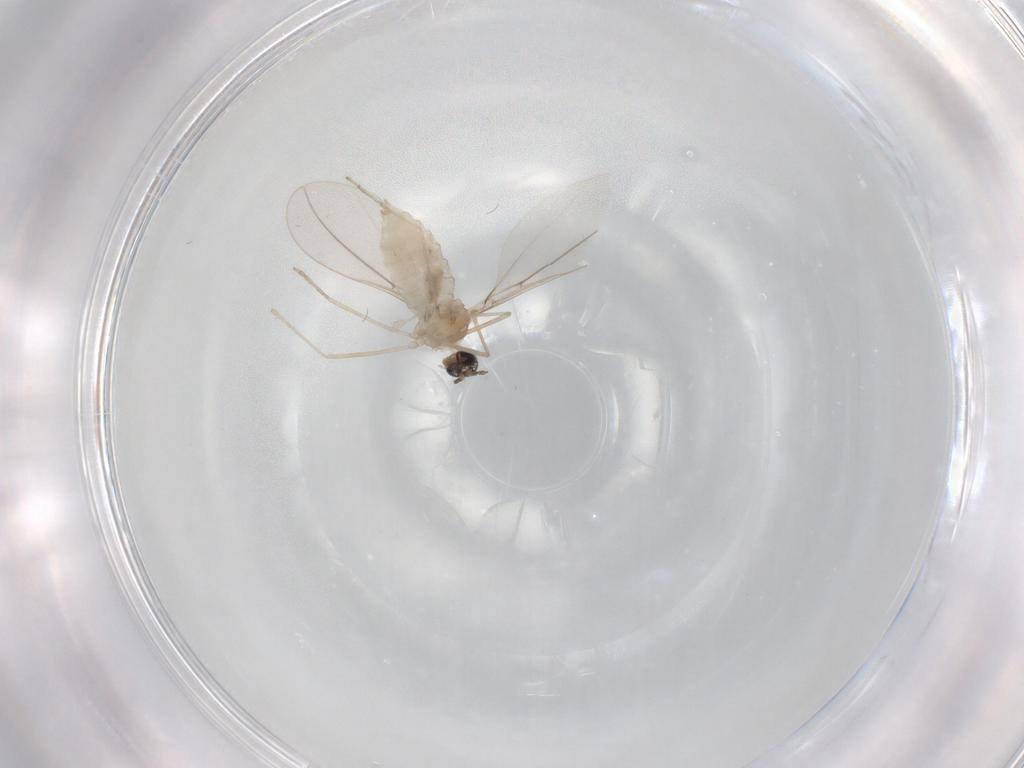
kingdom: Animalia
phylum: Arthropoda
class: Insecta
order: Diptera
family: Cecidomyiidae
